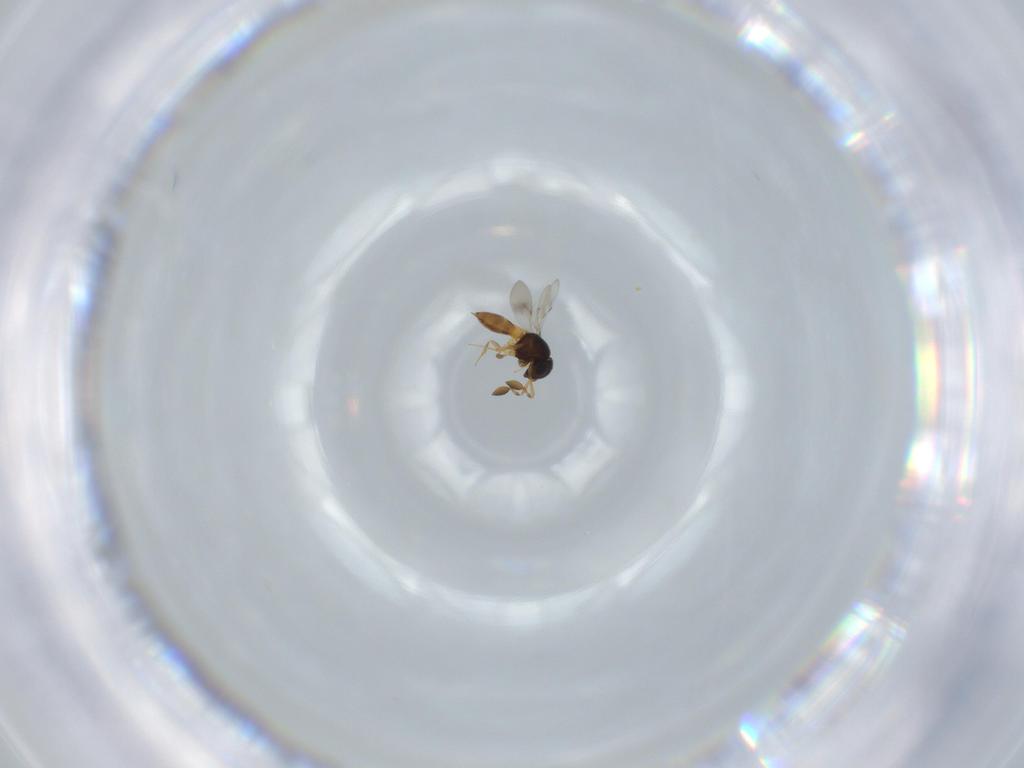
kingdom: Animalia
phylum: Arthropoda
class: Insecta
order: Hymenoptera
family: Scelionidae
